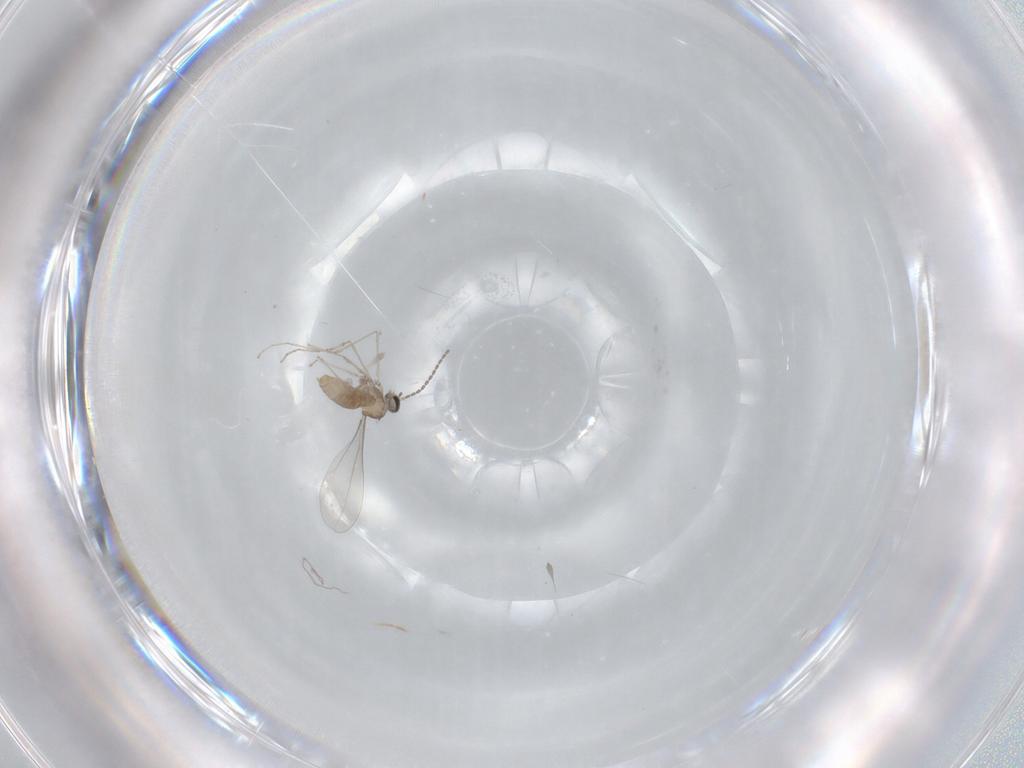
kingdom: Animalia
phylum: Arthropoda
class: Insecta
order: Diptera
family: Cecidomyiidae
